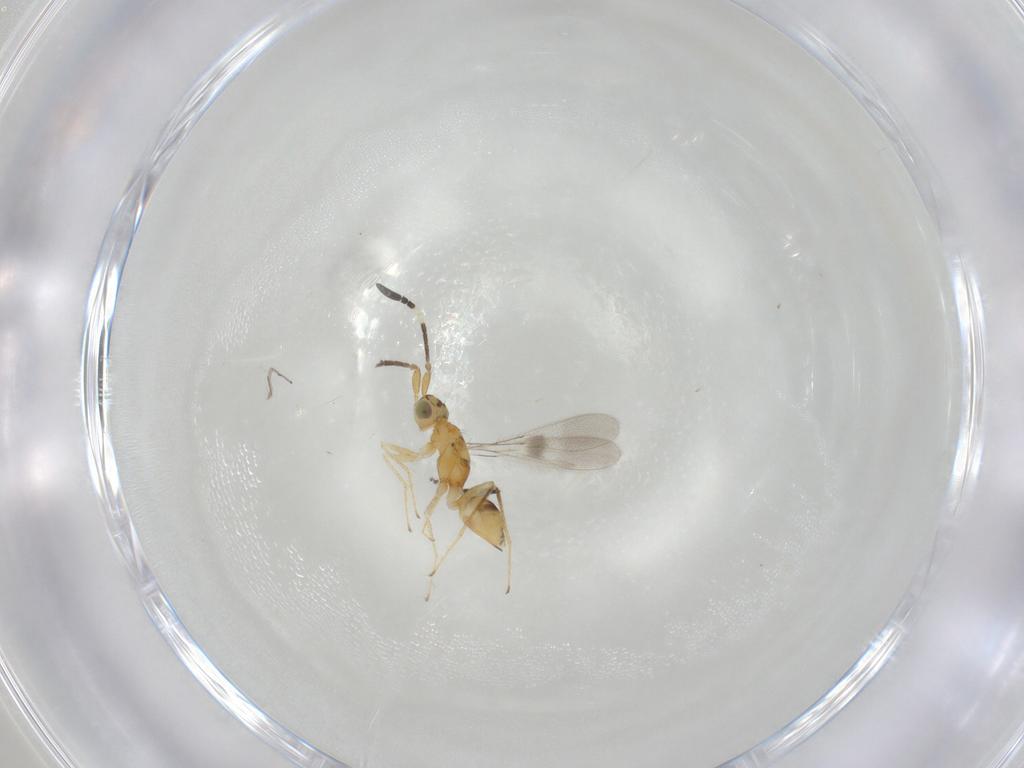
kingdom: Animalia
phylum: Arthropoda
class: Insecta
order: Hymenoptera
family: Mymaridae
